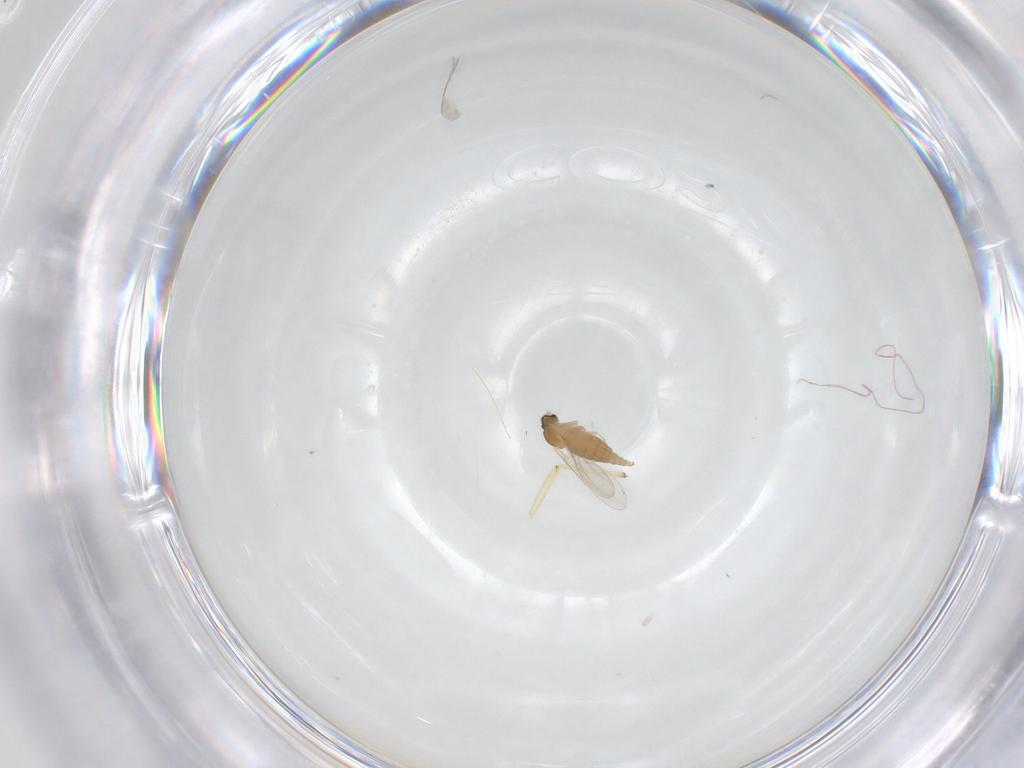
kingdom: Animalia
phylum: Arthropoda
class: Insecta
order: Diptera
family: Cecidomyiidae
